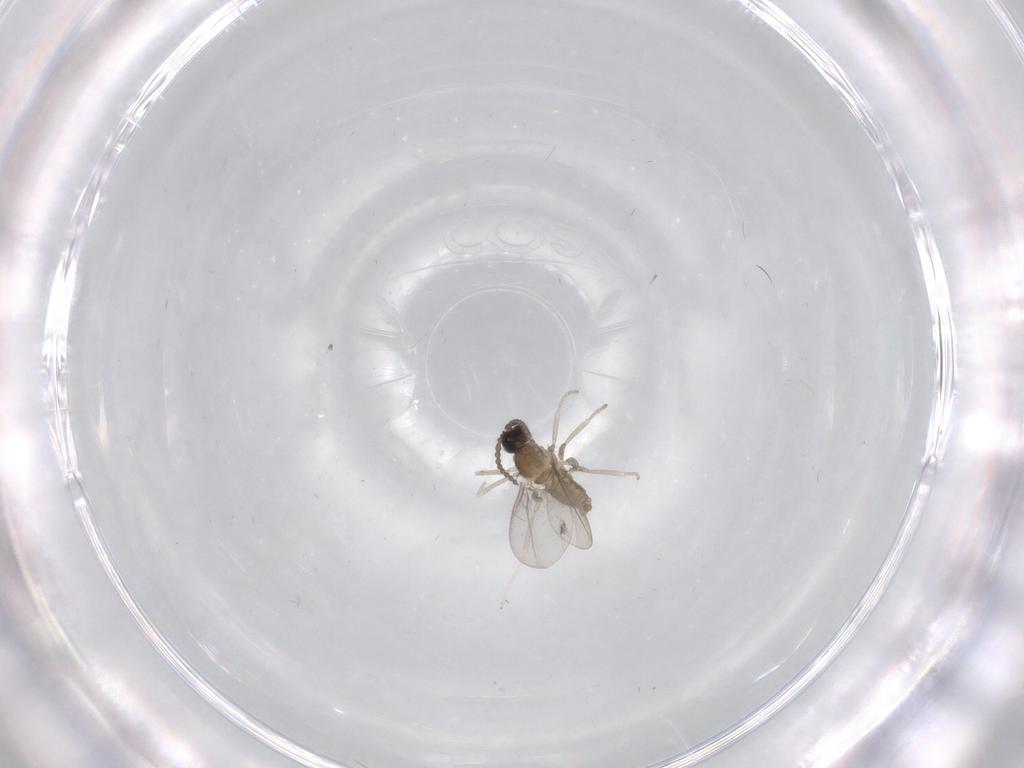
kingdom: Animalia
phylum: Arthropoda
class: Insecta
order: Diptera
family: Cecidomyiidae
